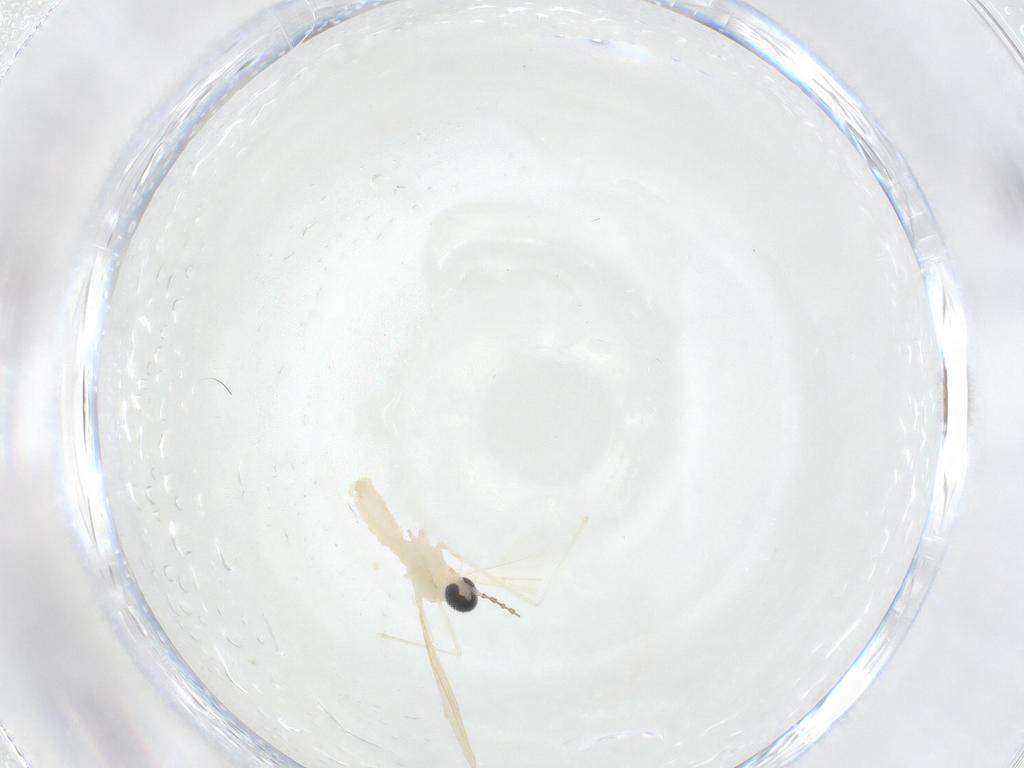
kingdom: Animalia
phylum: Arthropoda
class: Insecta
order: Diptera
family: Cecidomyiidae
